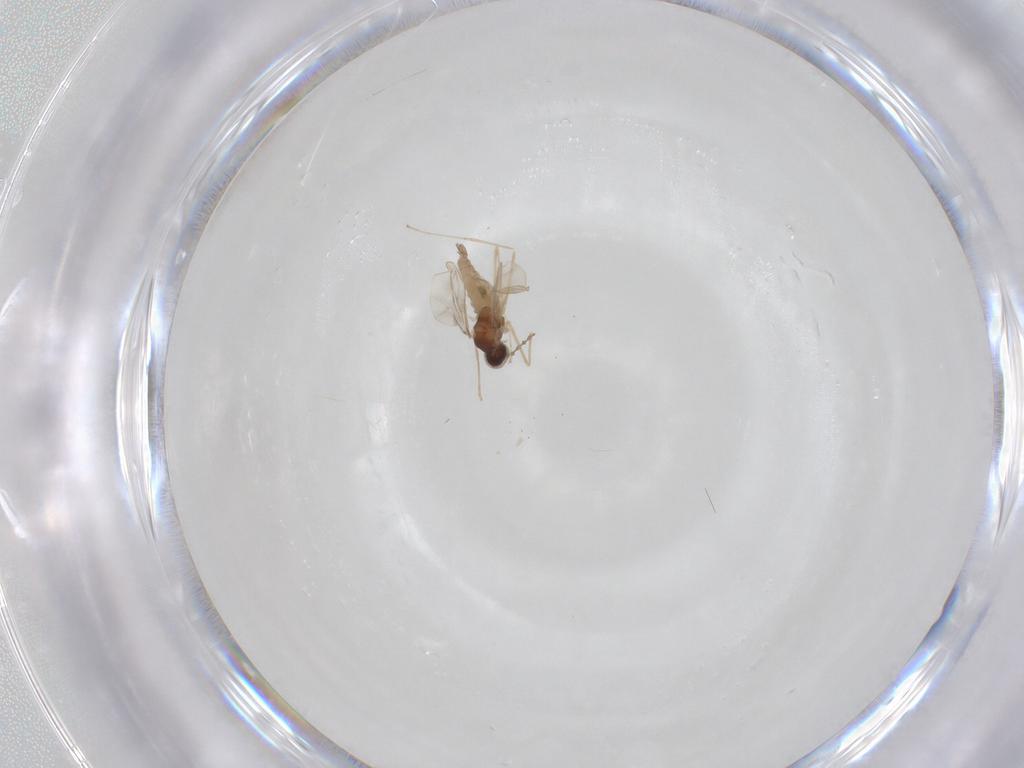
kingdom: Animalia
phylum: Arthropoda
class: Insecta
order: Diptera
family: Cecidomyiidae
